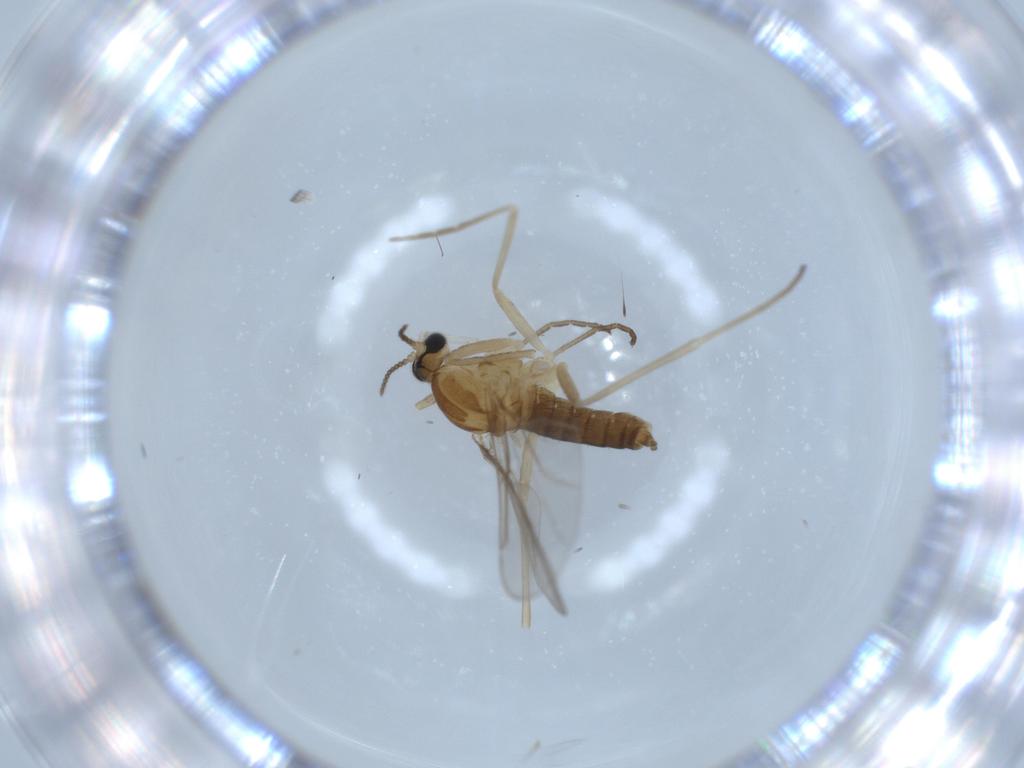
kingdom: Animalia
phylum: Arthropoda
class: Insecta
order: Diptera
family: Cecidomyiidae
